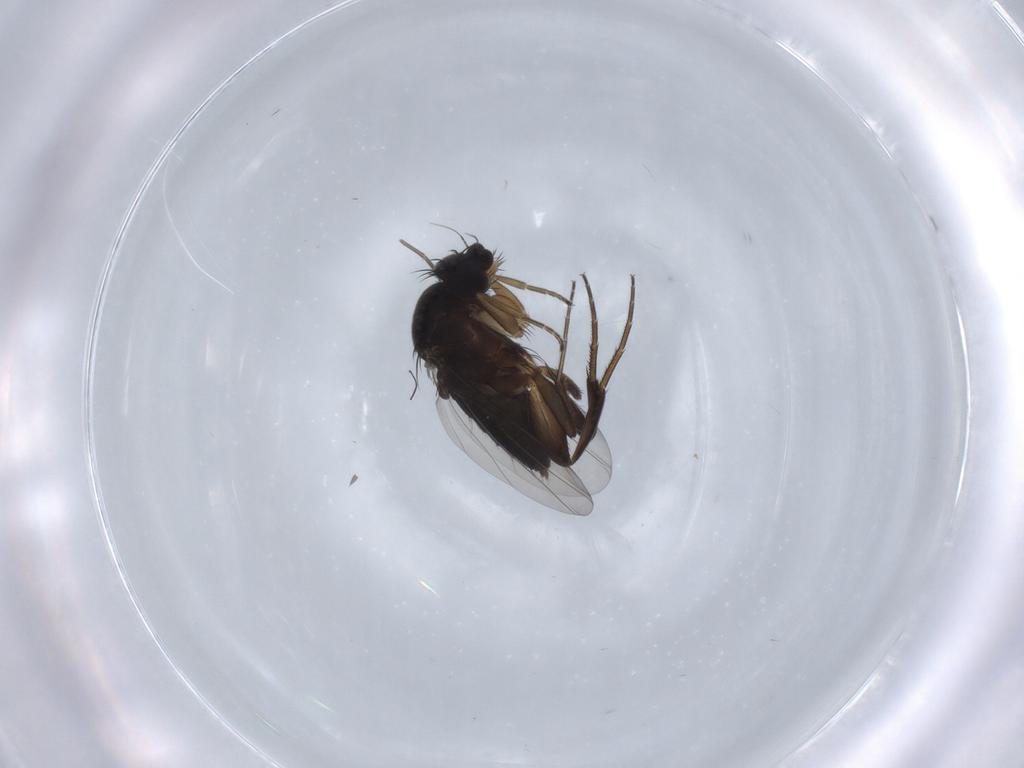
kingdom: Animalia
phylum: Arthropoda
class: Insecta
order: Diptera
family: Phoridae
